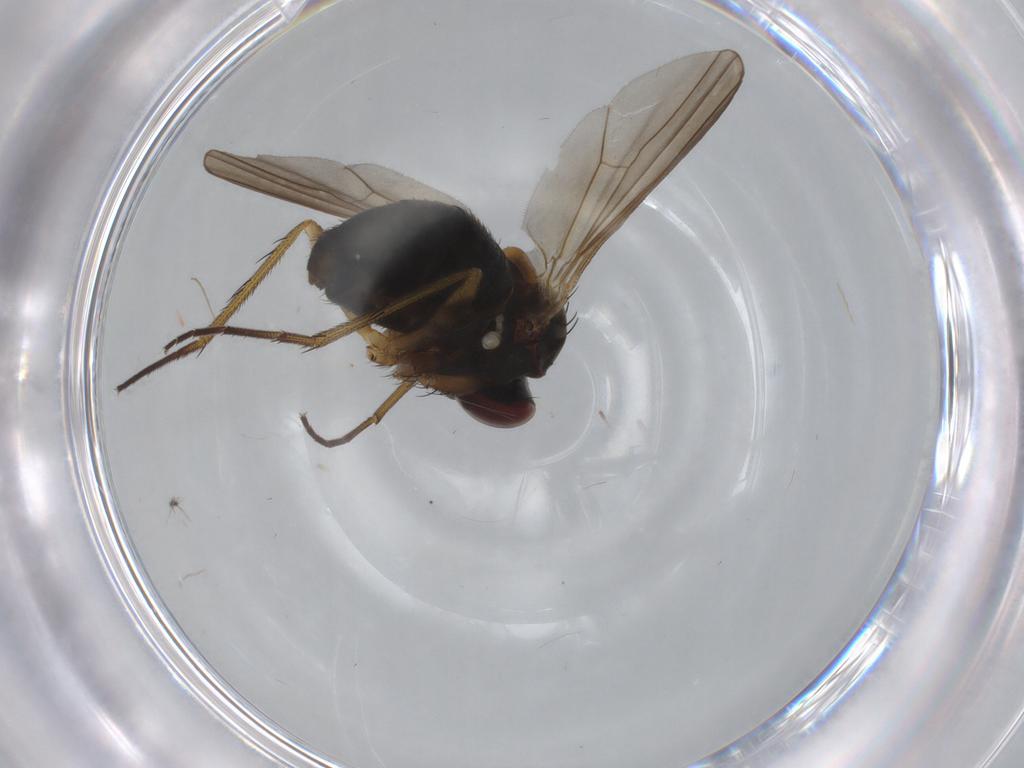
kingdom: Animalia
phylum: Arthropoda
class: Insecta
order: Diptera
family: Dolichopodidae
